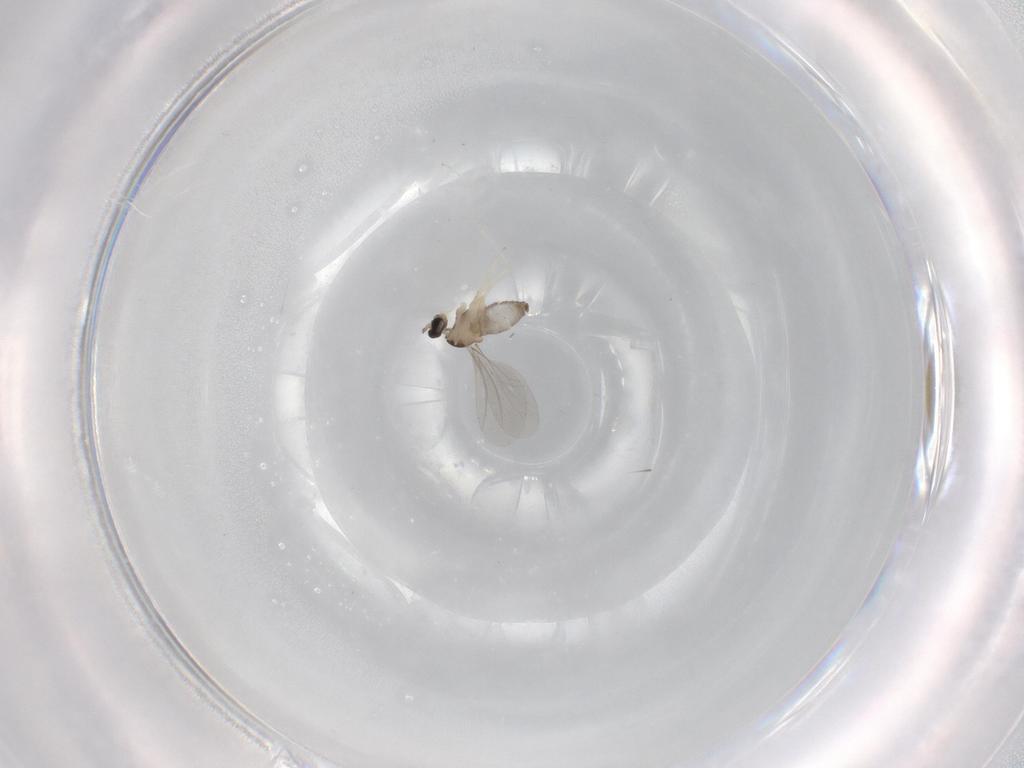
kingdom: Animalia
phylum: Arthropoda
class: Insecta
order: Diptera
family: Cecidomyiidae
